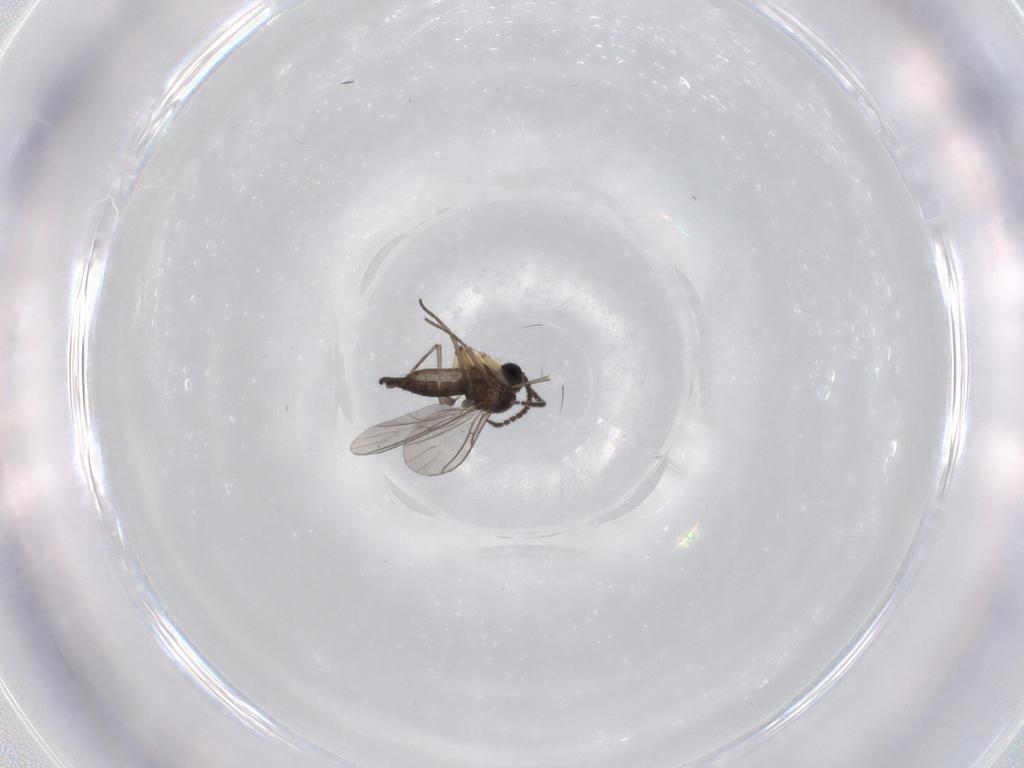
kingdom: Animalia
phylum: Arthropoda
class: Insecta
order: Diptera
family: Sciaridae
